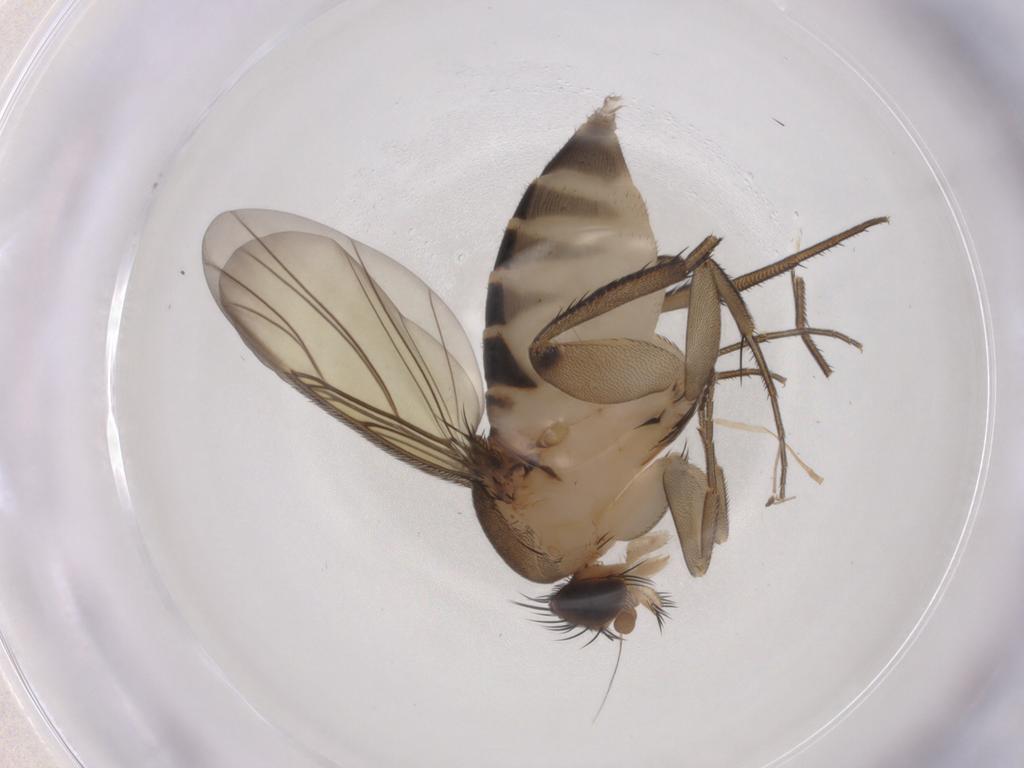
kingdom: Animalia
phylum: Arthropoda
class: Insecta
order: Diptera
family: Phoridae
